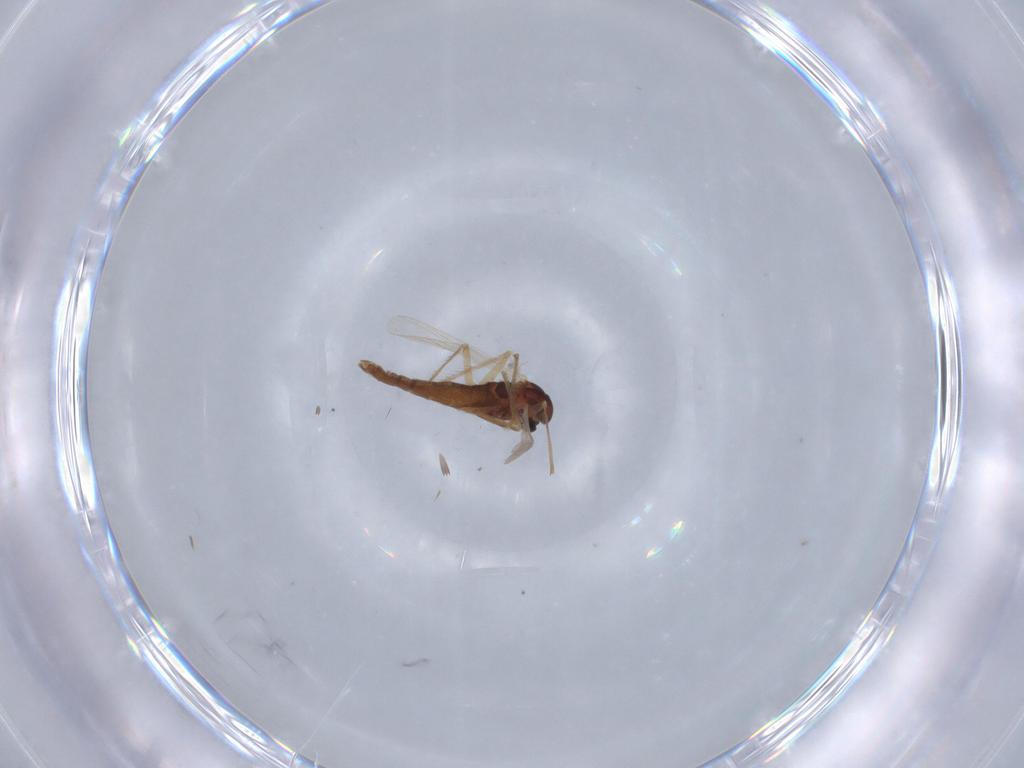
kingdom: Animalia
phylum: Arthropoda
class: Insecta
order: Diptera
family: Chironomidae
